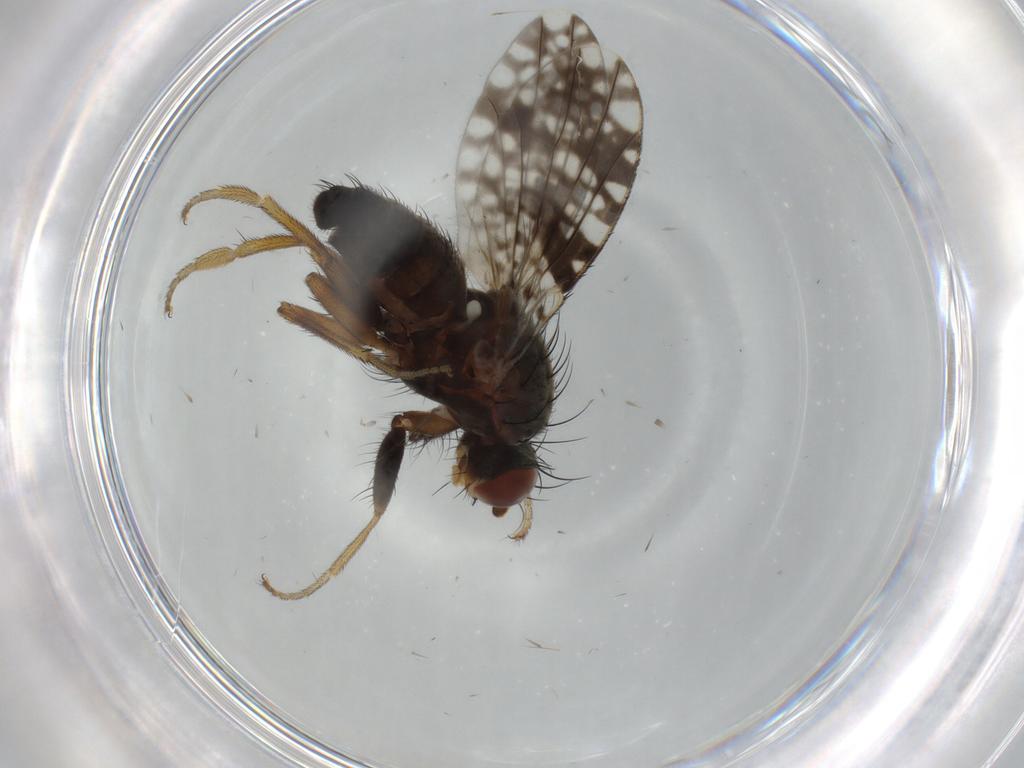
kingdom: Animalia
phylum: Arthropoda
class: Insecta
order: Diptera
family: Tephritidae
